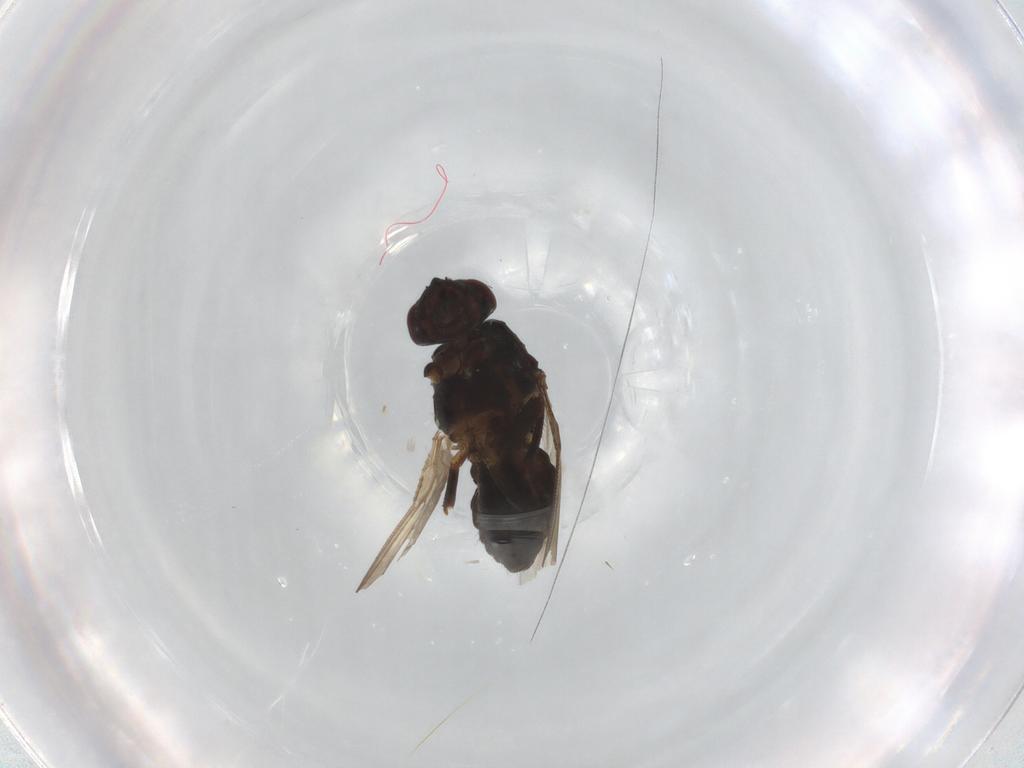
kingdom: Animalia
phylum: Arthropoda
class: Insecta
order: Diptera
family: Sphaeroceridae
